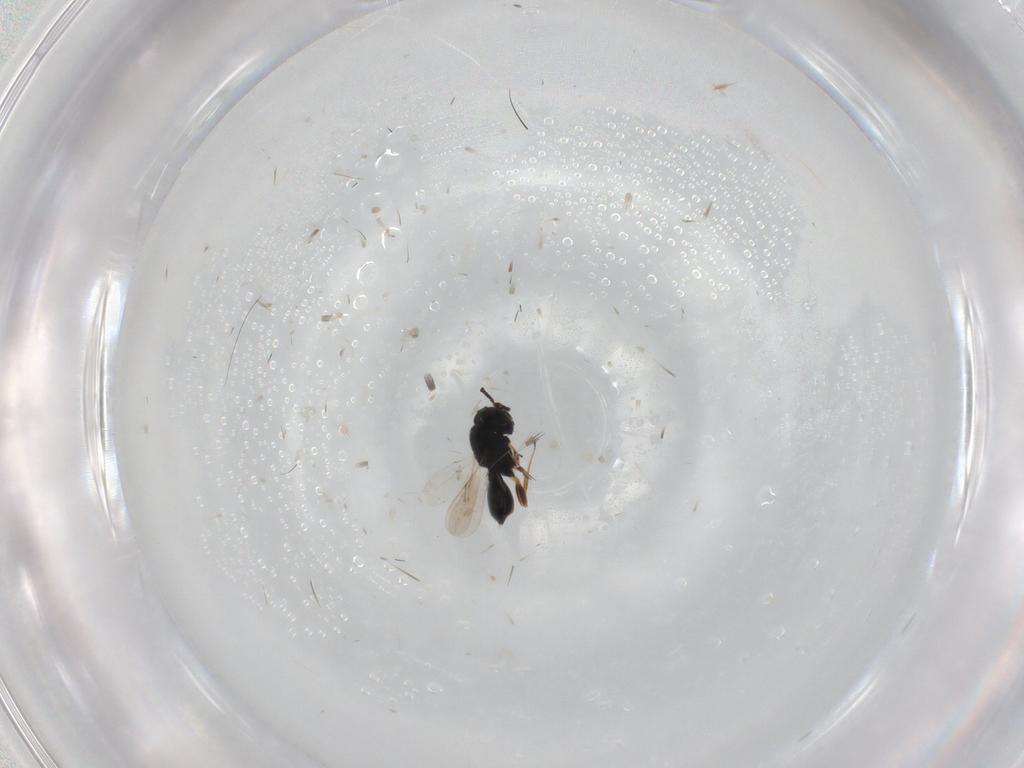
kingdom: Animalia
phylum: Arthropoda
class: Insecta
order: Hymenoptera
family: Scelionidae
